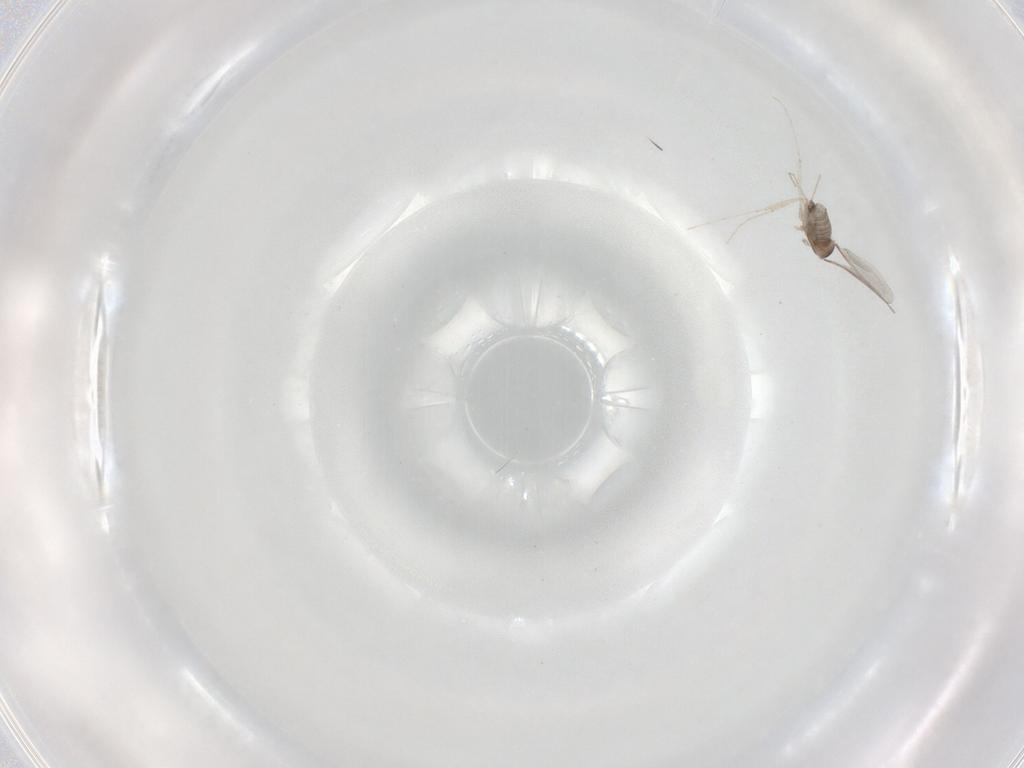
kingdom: Animalia
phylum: Arthropoda
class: Insecta
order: Diptera
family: Cecidomyiidae
